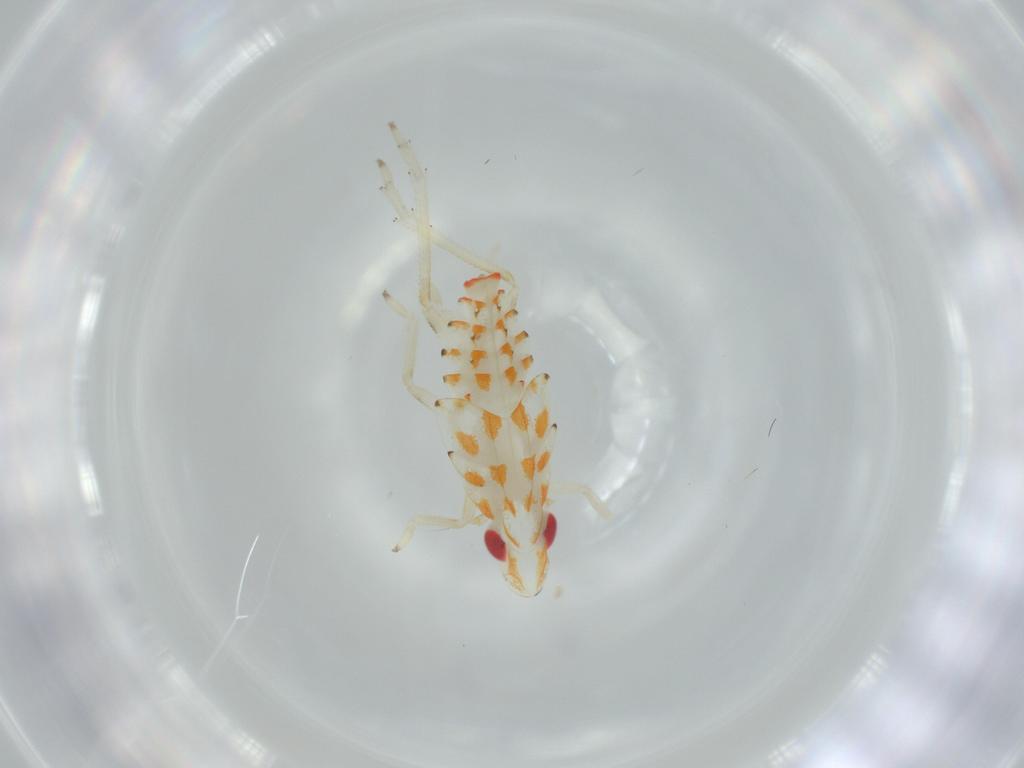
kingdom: Animalia
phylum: Arthropoda
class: Insecta
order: Hemiptera
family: Tropiduchidae
